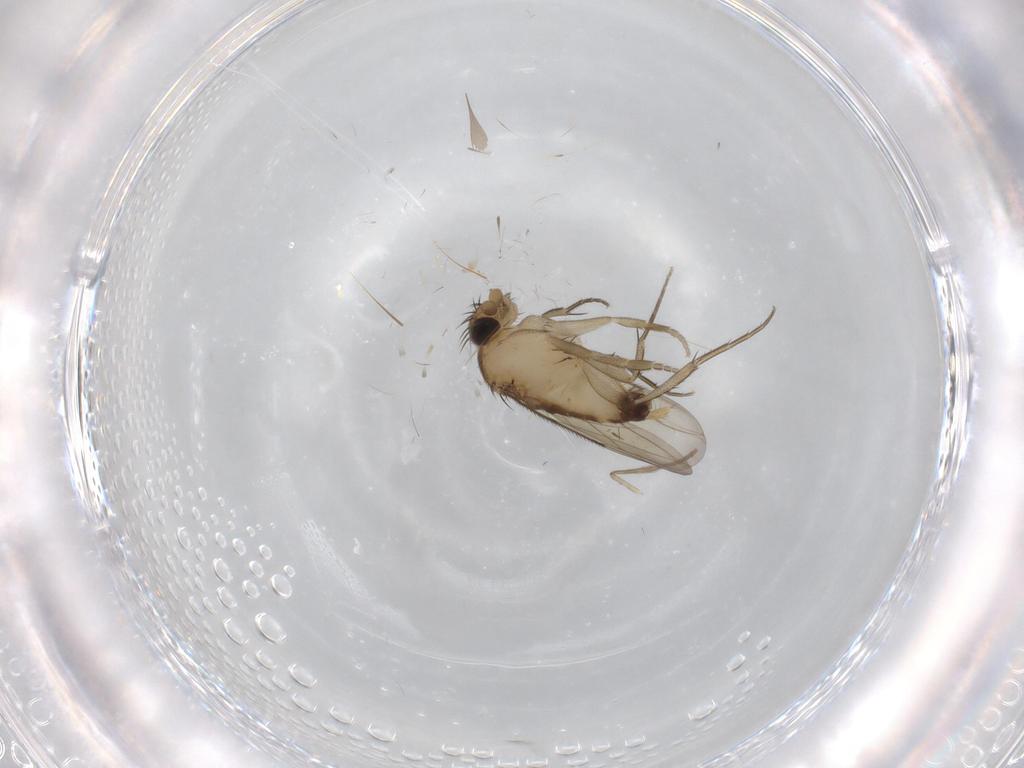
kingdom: Animalia
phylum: Arthropoda
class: Insecta
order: Diptera
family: Phoridae
